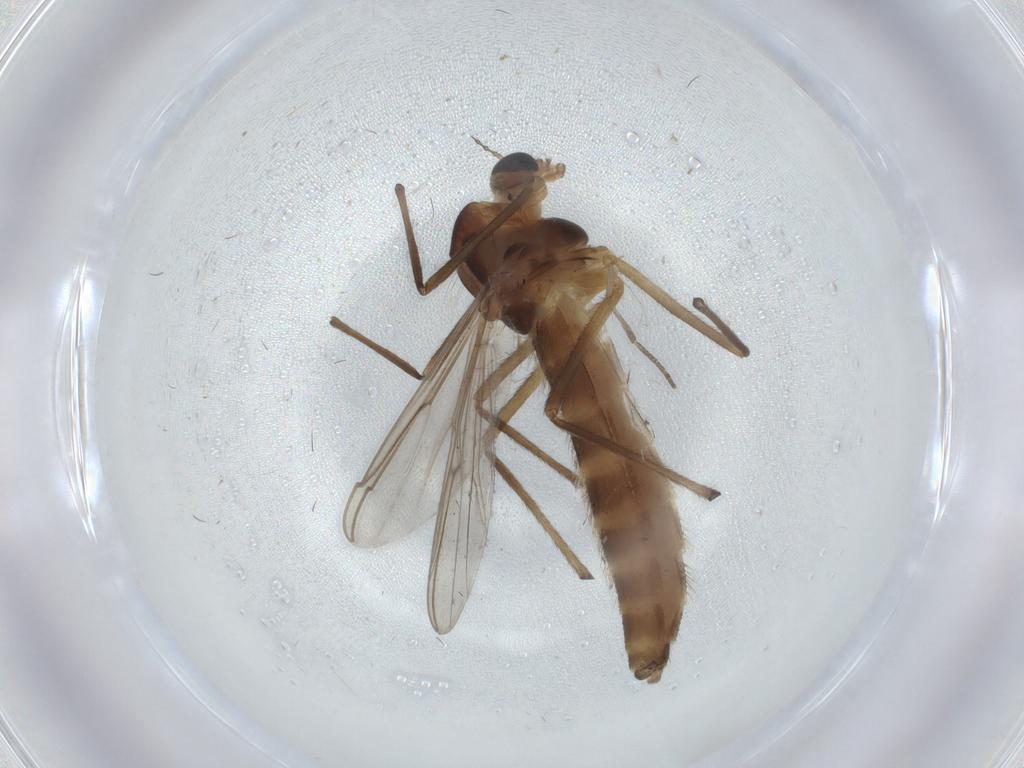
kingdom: Animalia
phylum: Arthropoda
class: Insecta
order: Diptera
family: Chironomidae
